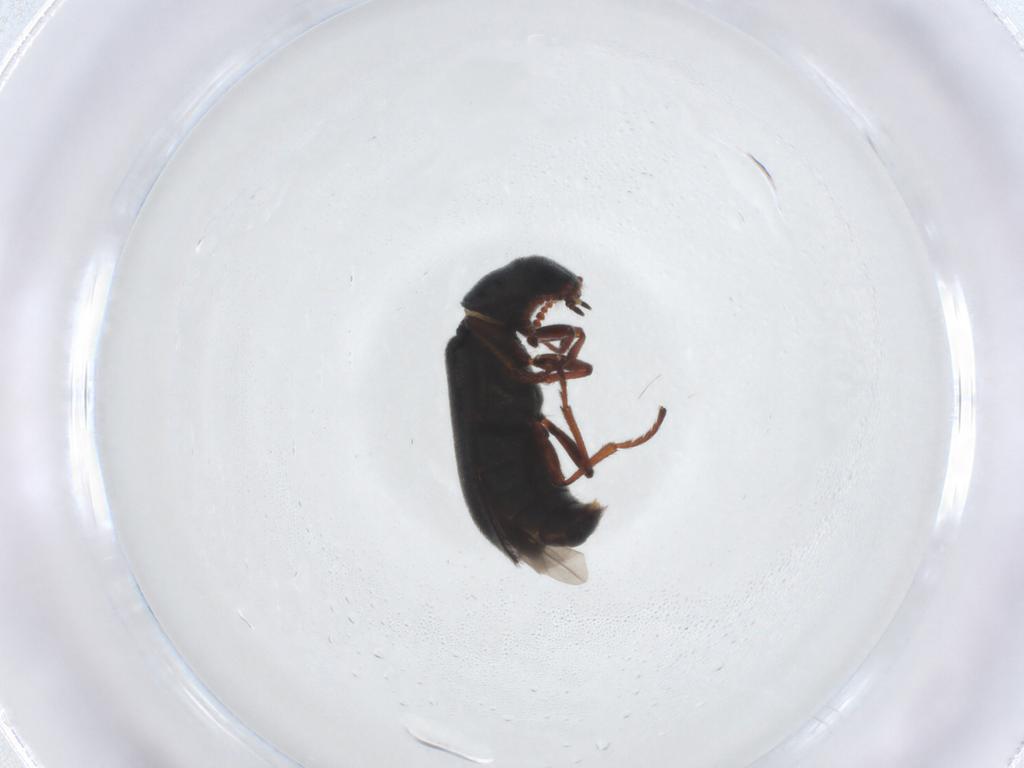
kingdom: Animalia
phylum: Arthropoda
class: Insecta
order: Coleoptera
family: Melyridae
